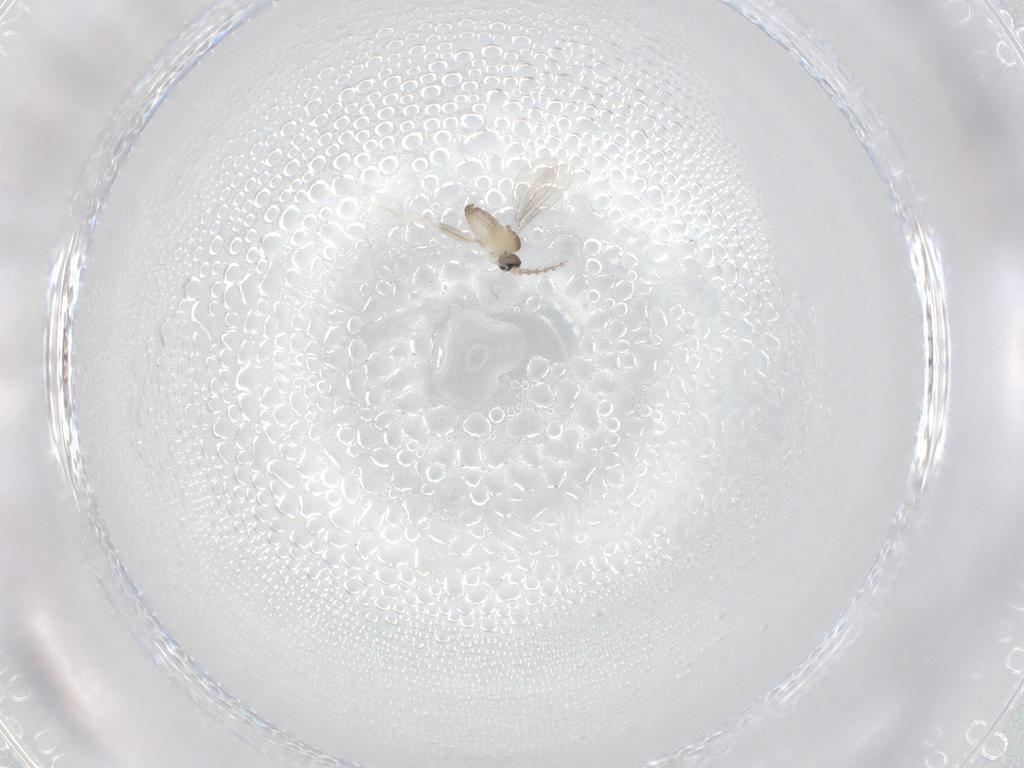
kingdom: Animalia
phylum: Arthropoda
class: Insecta
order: Diptera
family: Cecidomyiidae
